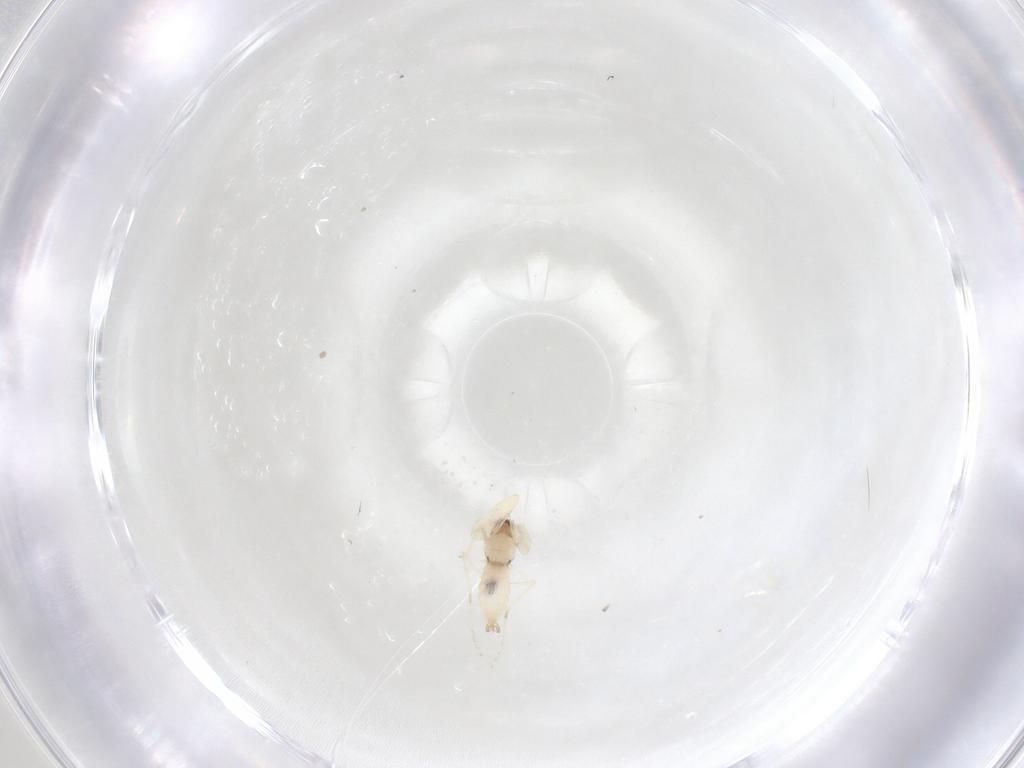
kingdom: Animalia
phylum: Arthropoda
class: Insecta
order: Diptera
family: Cecidomyiidae
